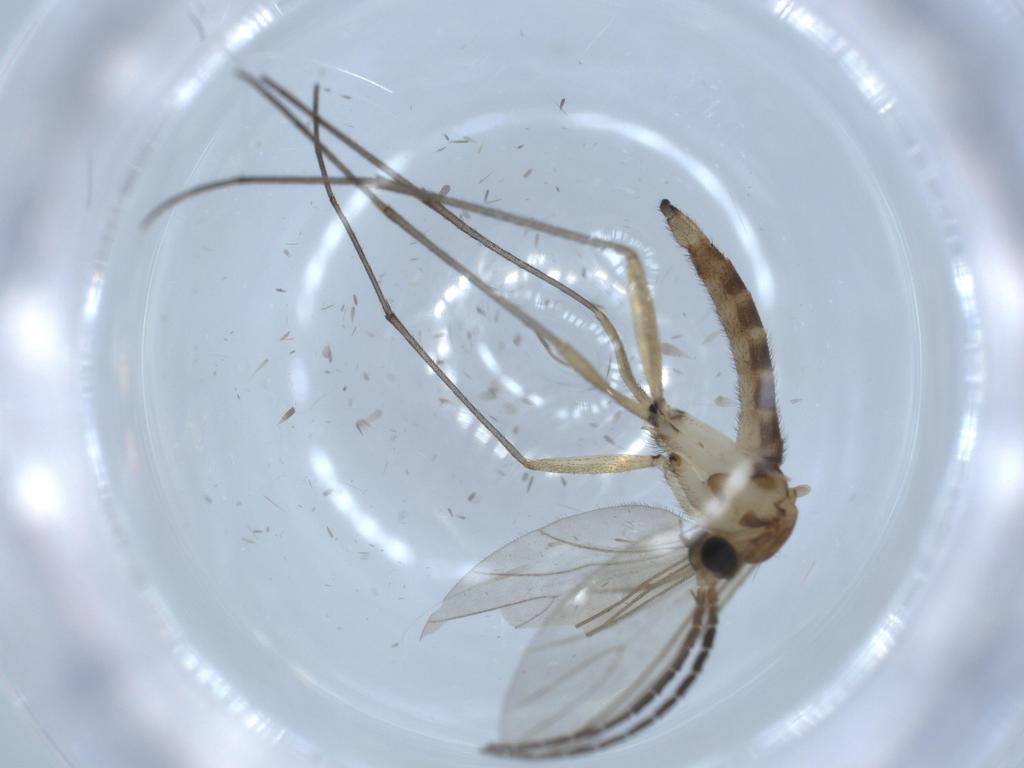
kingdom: Animalia
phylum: Arthropoda
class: Insecta
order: Diptera
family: Sciaridae
